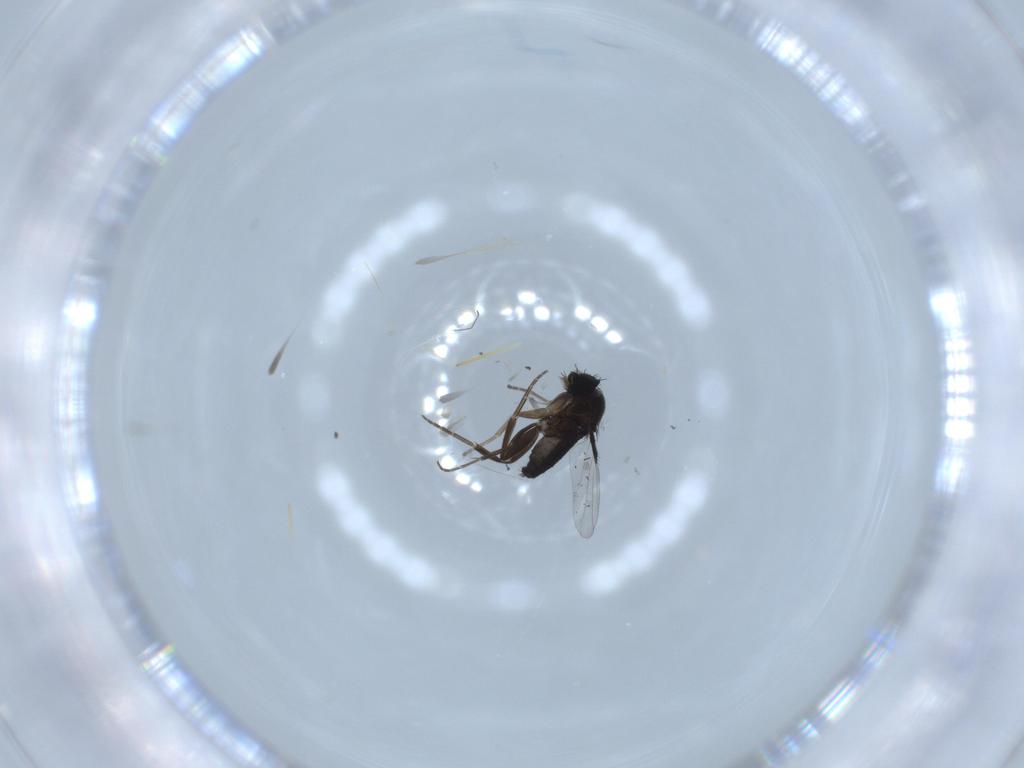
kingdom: Animalia
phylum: Arthropoda
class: Insecta
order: Diptera
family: Phoridae
